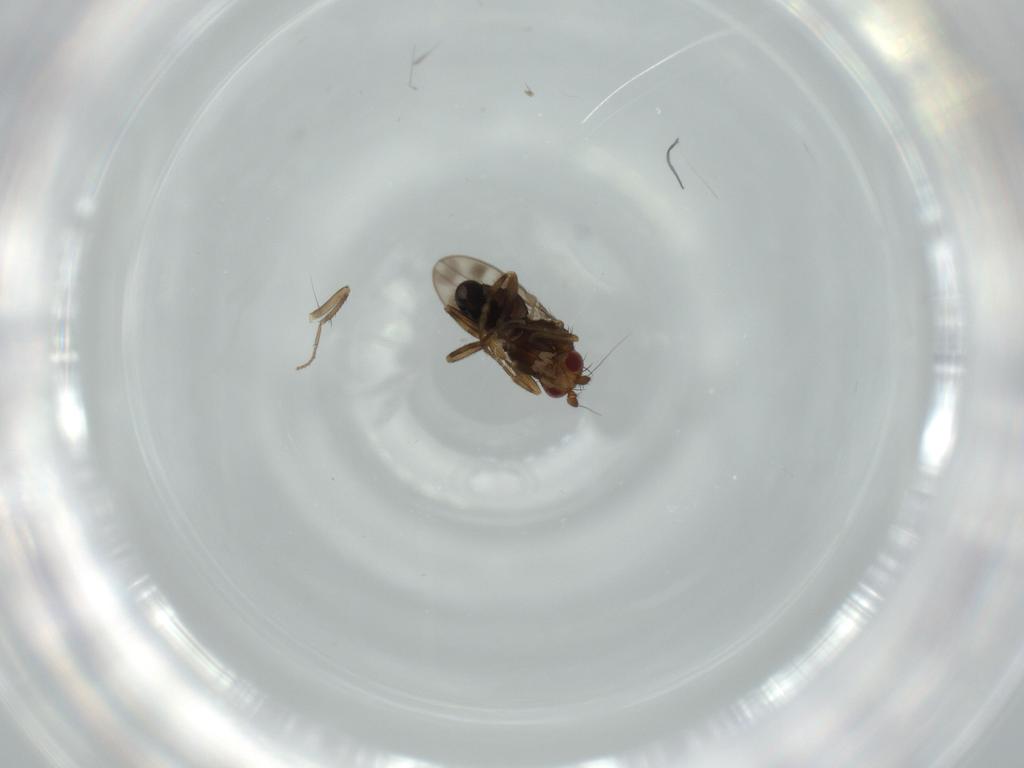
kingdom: Animalia
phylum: Arthropoda
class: Insecta
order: Diptera
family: Sphaeroceridae
